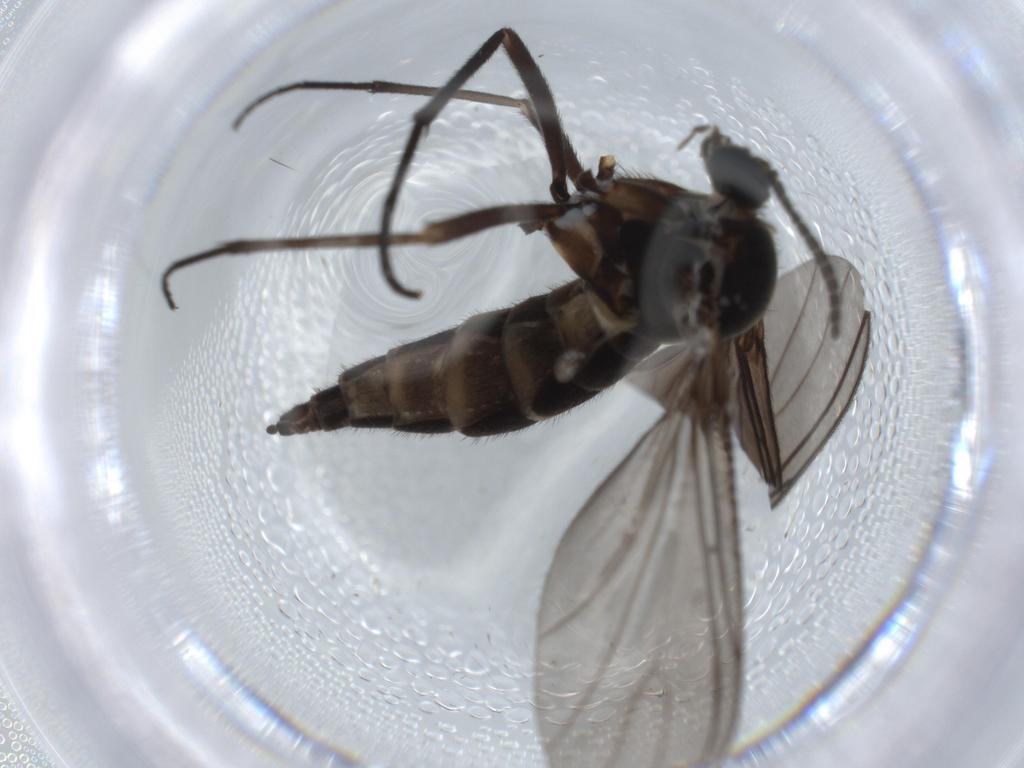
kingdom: Animalia
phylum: Arthropoda
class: Insecta
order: Diptera
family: Sciaridae
